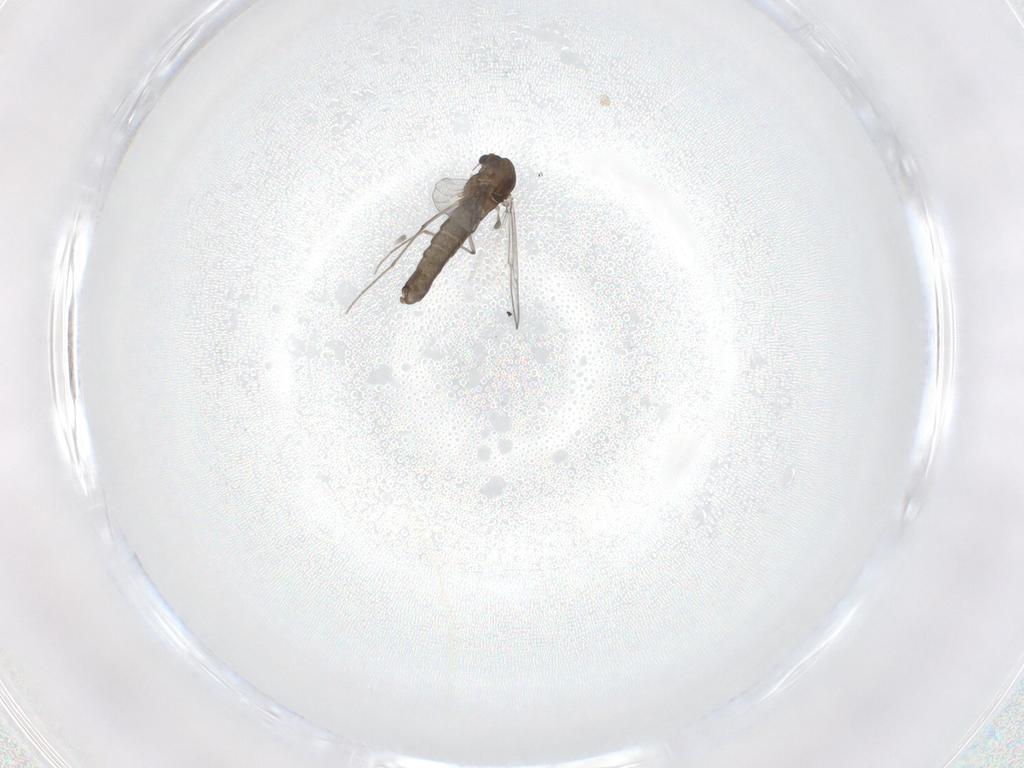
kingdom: Animalia
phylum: Arthropoda
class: Insecta
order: Diptera
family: Chironomidae
